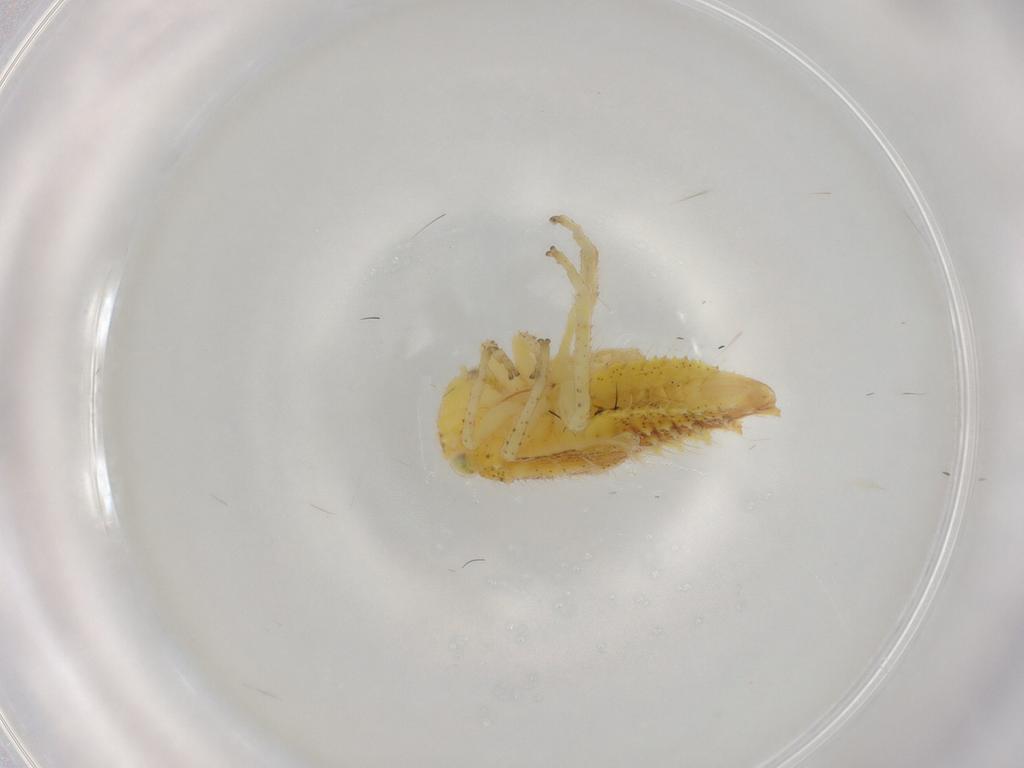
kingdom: Animalia
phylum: Arthropoda
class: Insecta
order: Hemiptera
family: Cicadellidae
